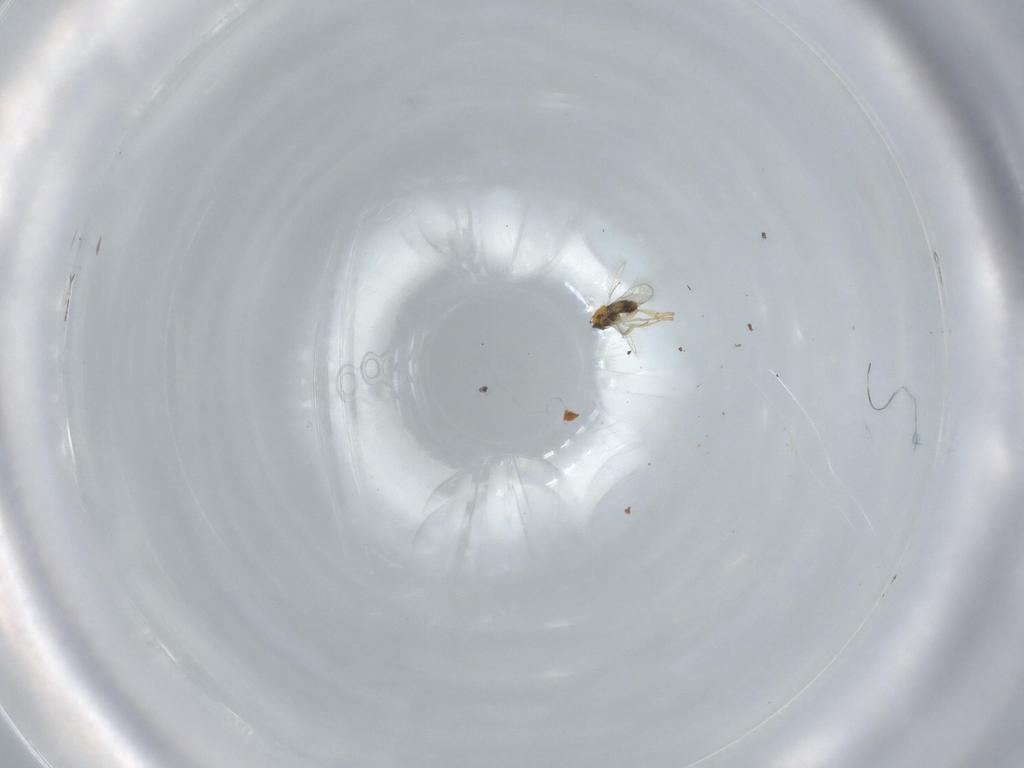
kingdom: Animalia
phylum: Arthropoda
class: Insecta
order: Hymenoptera
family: Aphelinidae
